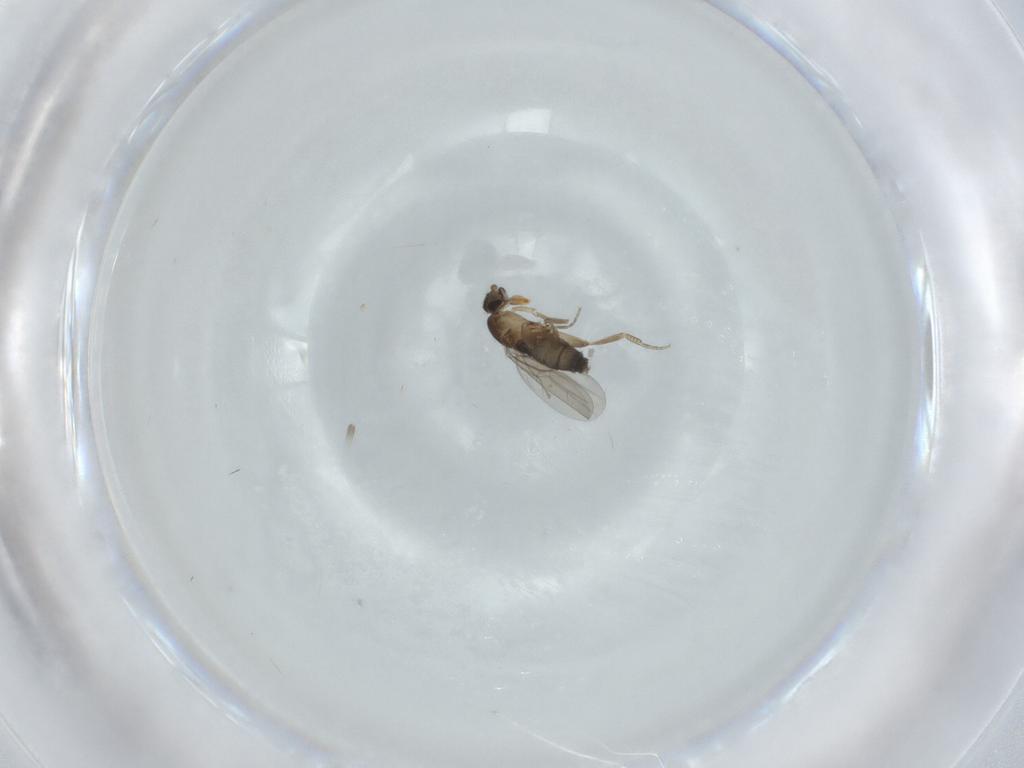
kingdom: Animalia
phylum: Arthropoda
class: Insecta
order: Diptera
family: Phoridae
